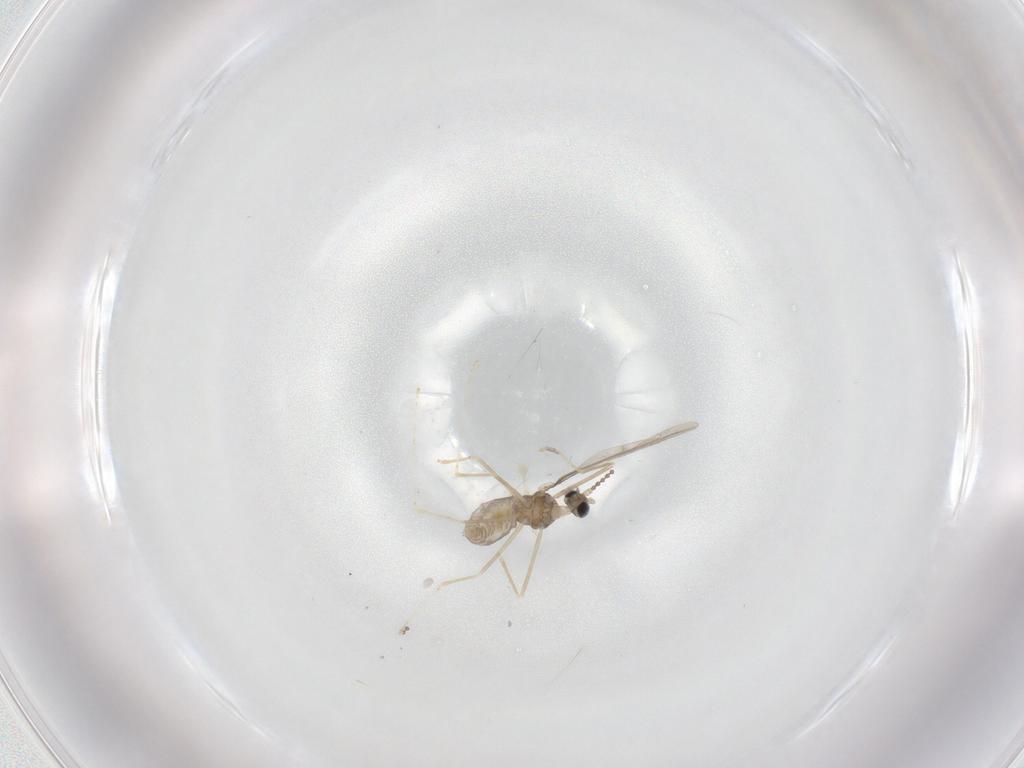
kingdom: Animalia
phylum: Arthropoda
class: Insecta
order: Diptera
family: Cecidomyiidae
